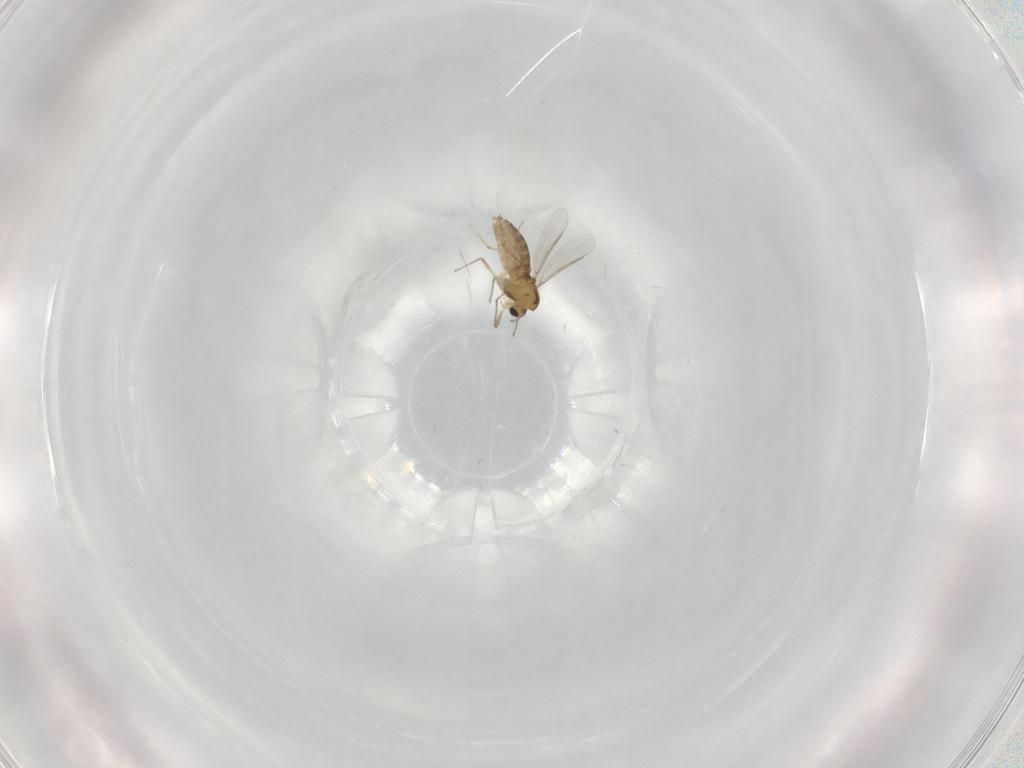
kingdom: Animalia
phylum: Arthropoda
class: Insecta
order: Diptera
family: Chironomidae
